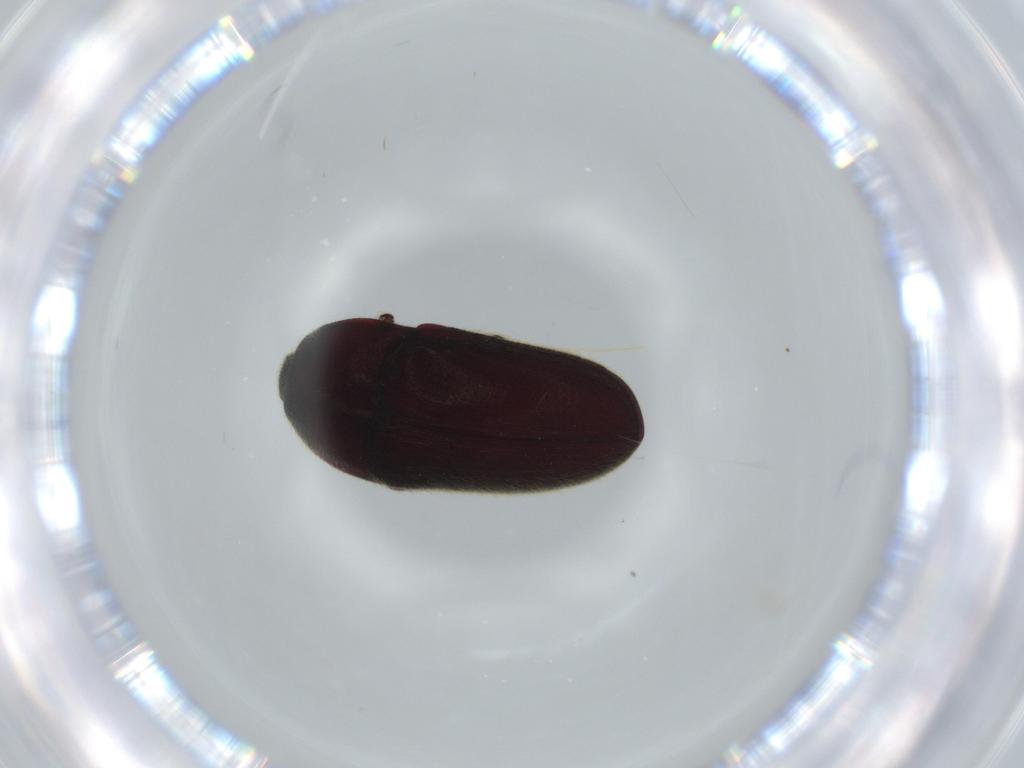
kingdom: Animalia
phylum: Arthropoda
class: Insecta
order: Coleoptera
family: Throscidae
